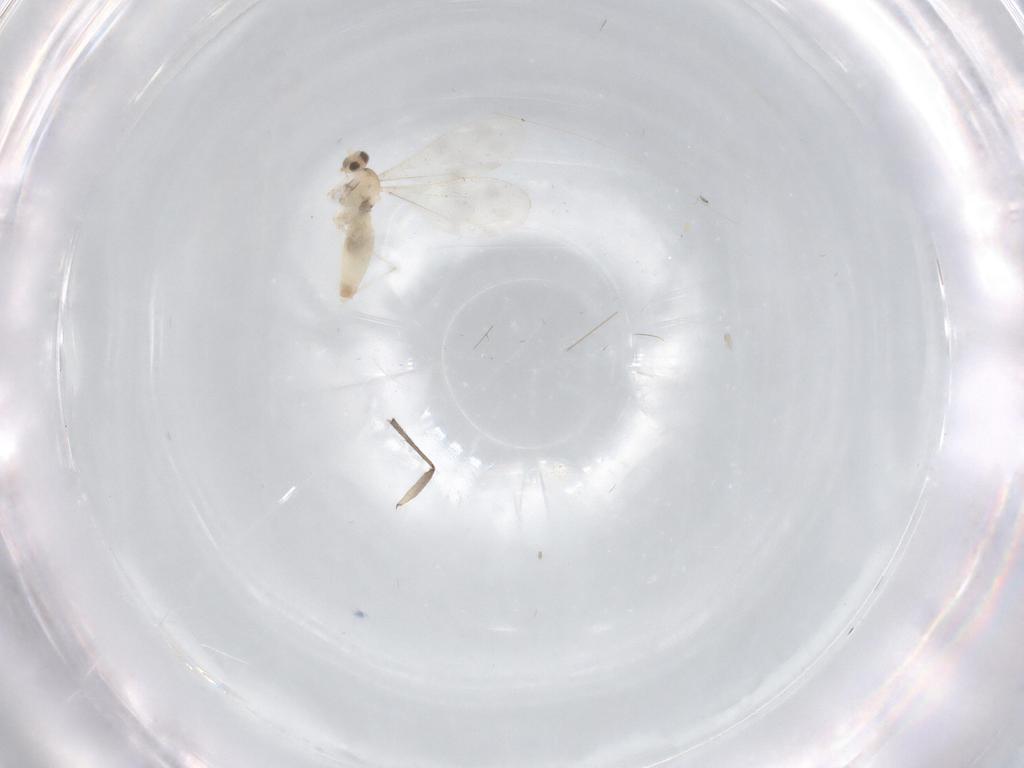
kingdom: Animalia
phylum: Arthropoda
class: Insecta
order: Diptera
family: Cecidomyiidae
